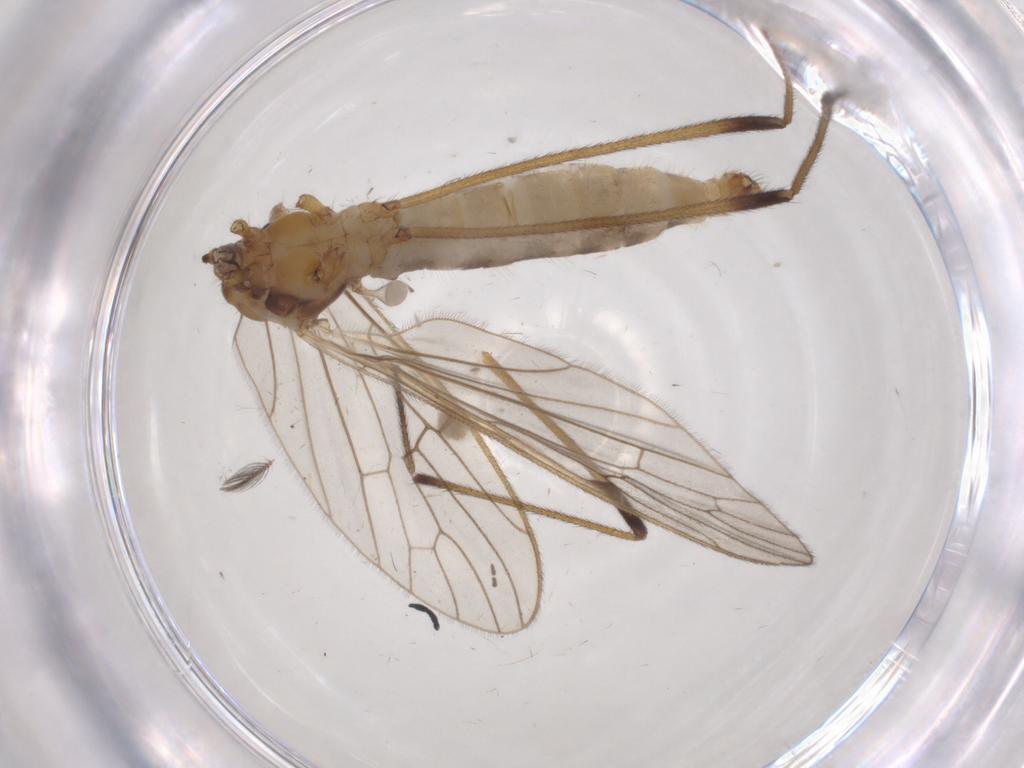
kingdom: Animalia
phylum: Arthropoda
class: Insecta
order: Diptera
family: Limoniidae
